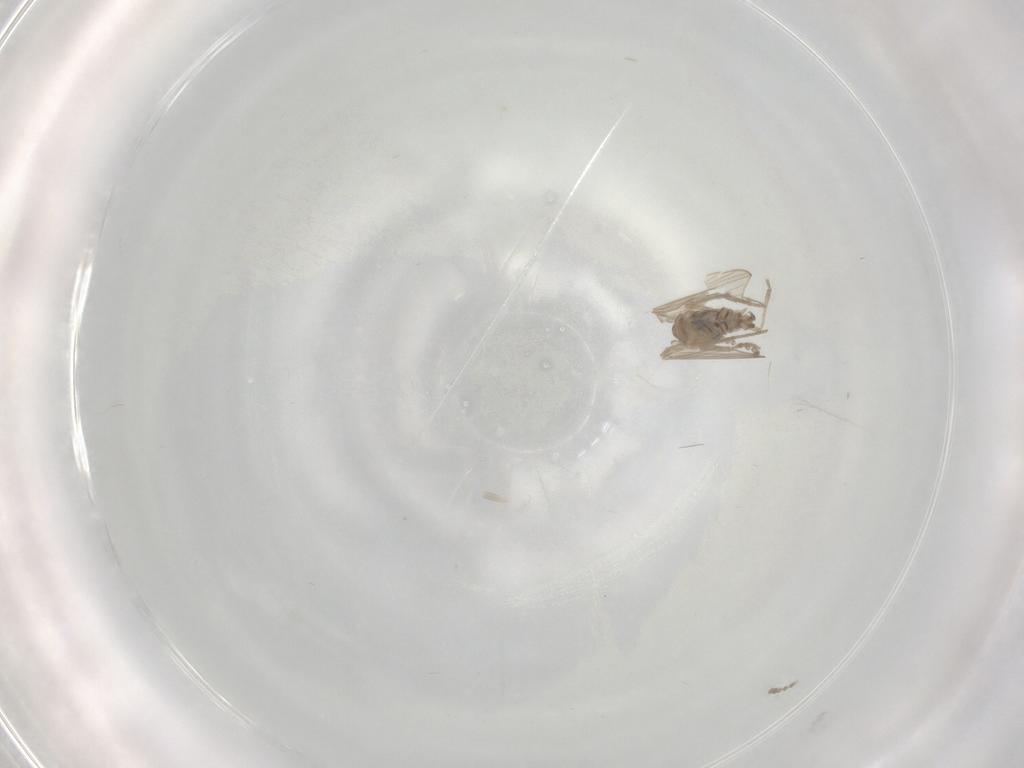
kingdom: Animalia
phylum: Arthropoda
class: Insecta
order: Diptera
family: Psychodidae
